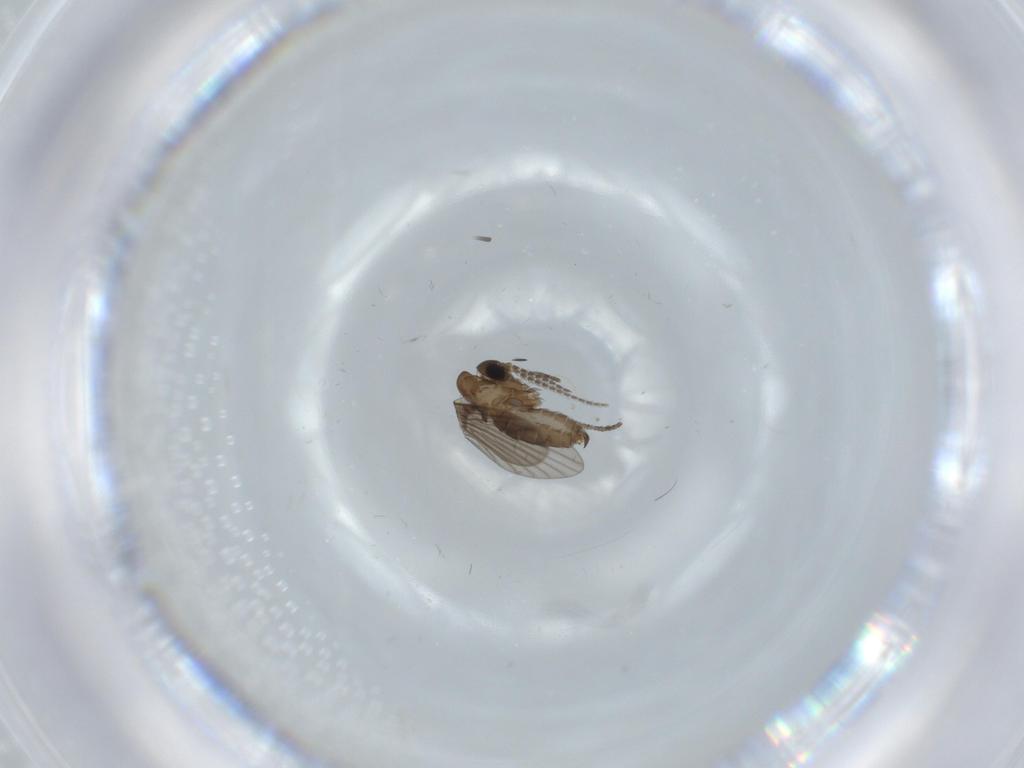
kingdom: Animalia
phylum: Arthropoda
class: Insecta
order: Diptera
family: Psychodidae
